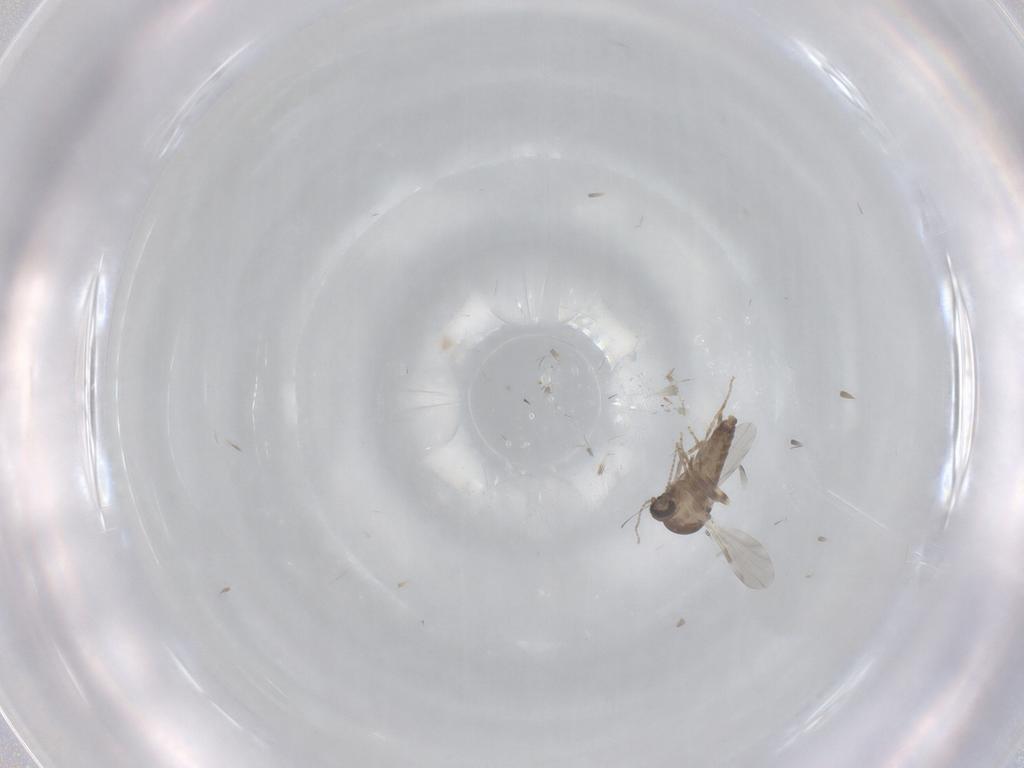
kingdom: Animalia
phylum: Arthropoda
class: Insecta
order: Diptera
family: Ceratopogonidae
